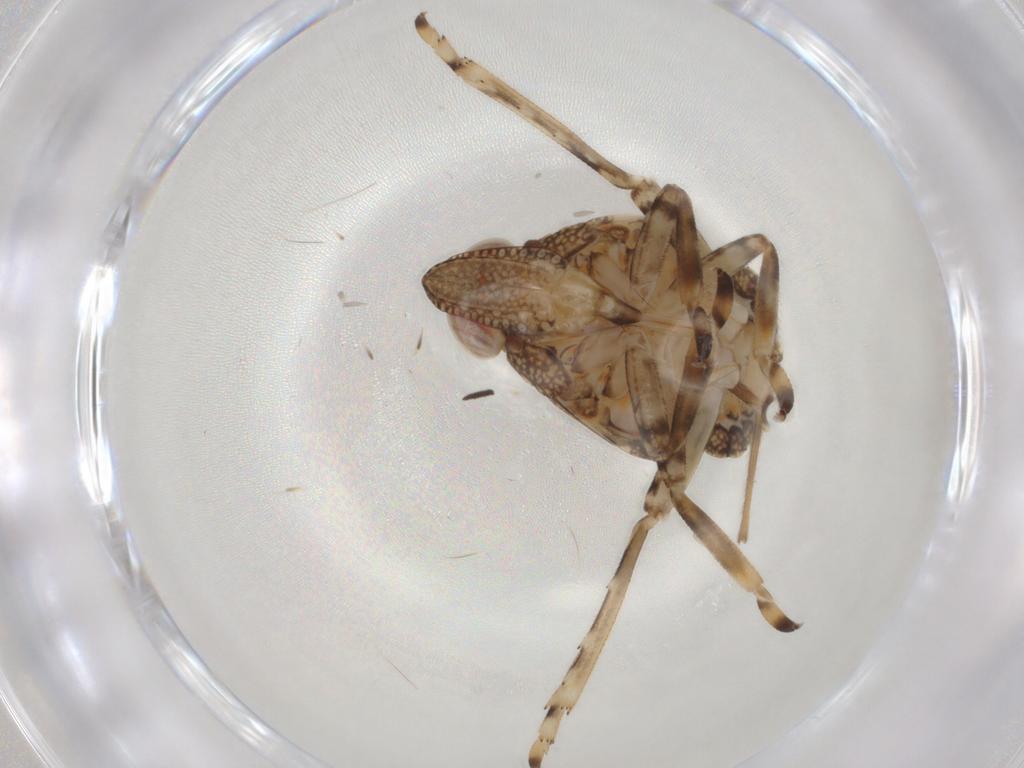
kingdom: Animalia
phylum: Arthropoda
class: Insecta
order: Hemiptera
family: Tropiduchidae
